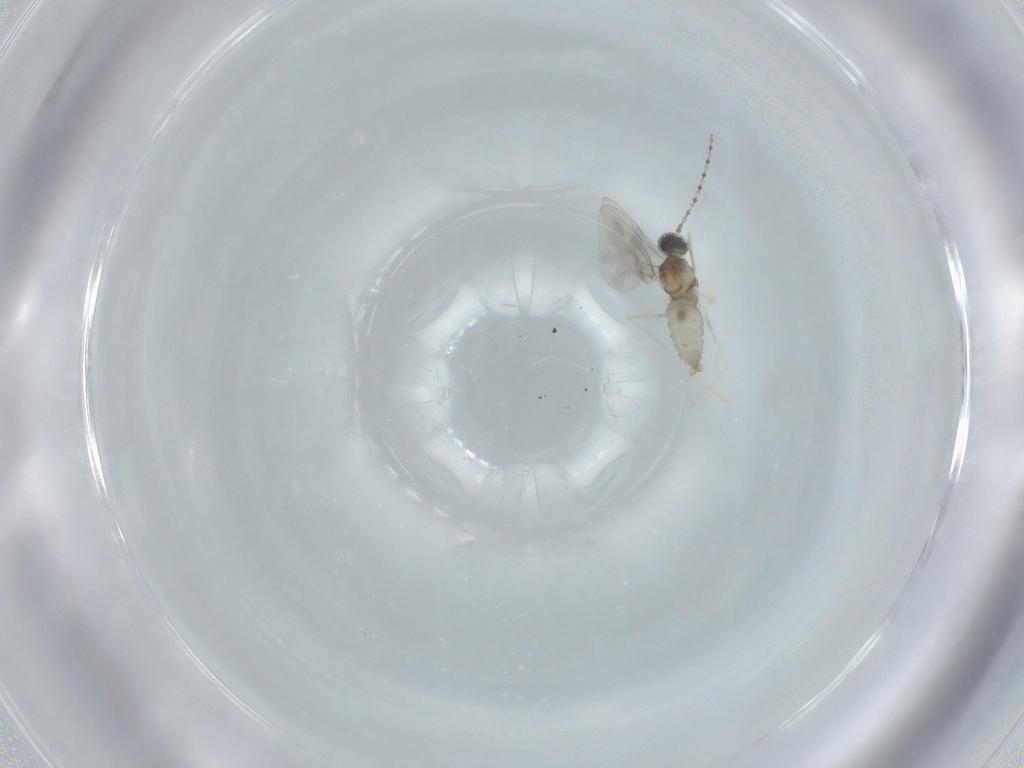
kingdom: Animalia
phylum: Arthropoda
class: Insecta
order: Diptera
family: Cecidomyiidae
